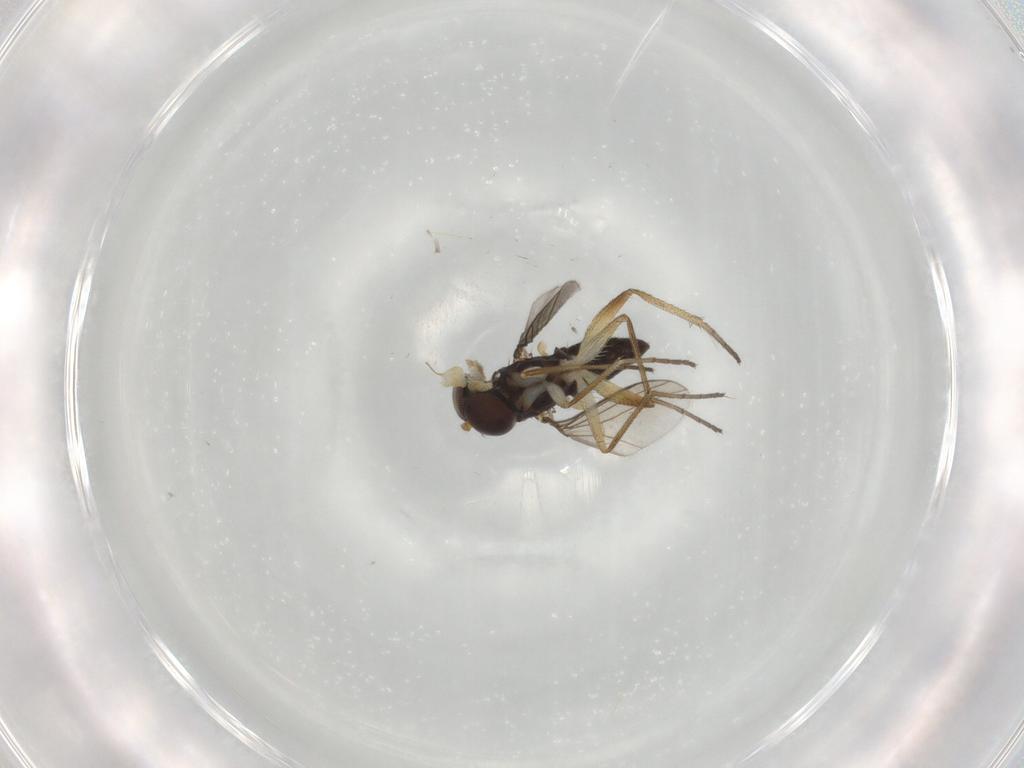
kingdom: Animalia
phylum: Arthropoda
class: Insecta
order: Diptera
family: Dolichopodidae
